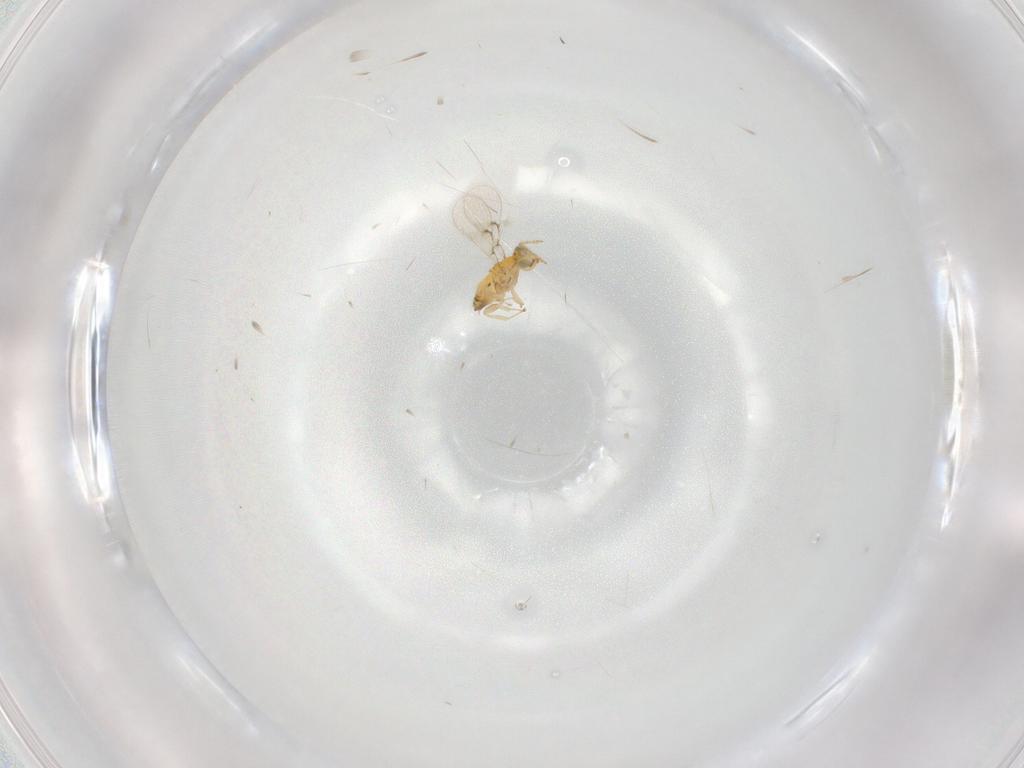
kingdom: Animalia
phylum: Arthropoda
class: Insecta
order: Hymenoptera
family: Trichogrammatidae
